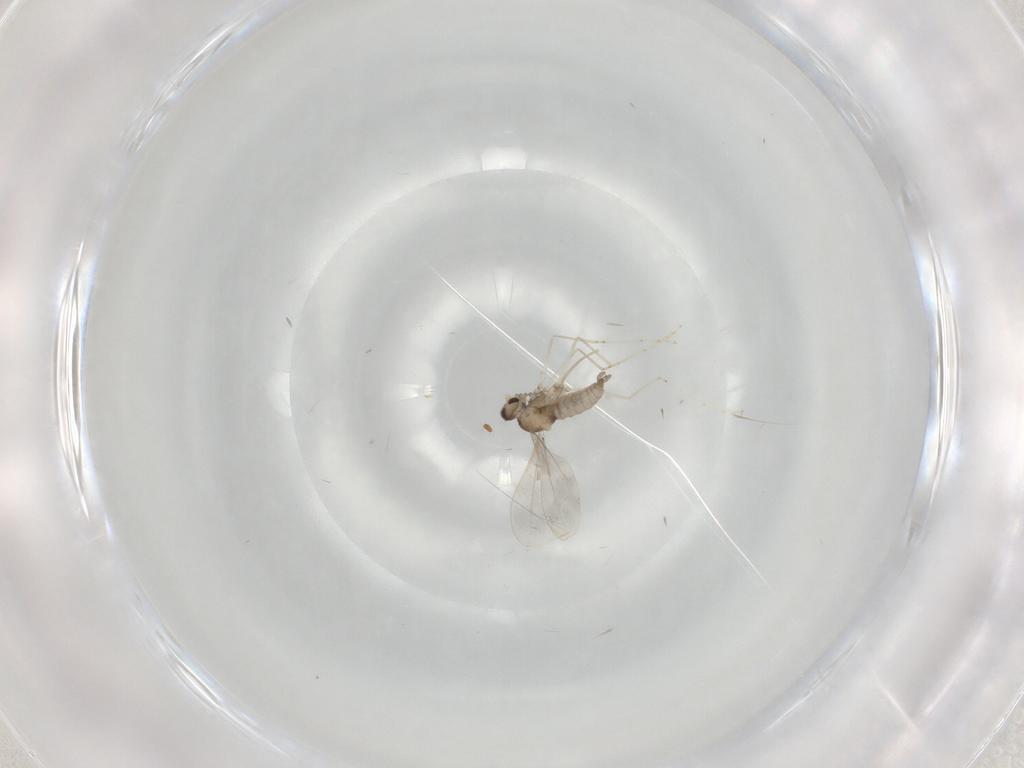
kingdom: Animalia
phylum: Arthropoda
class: Insecta
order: Diptera
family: Cecidomyiidae
